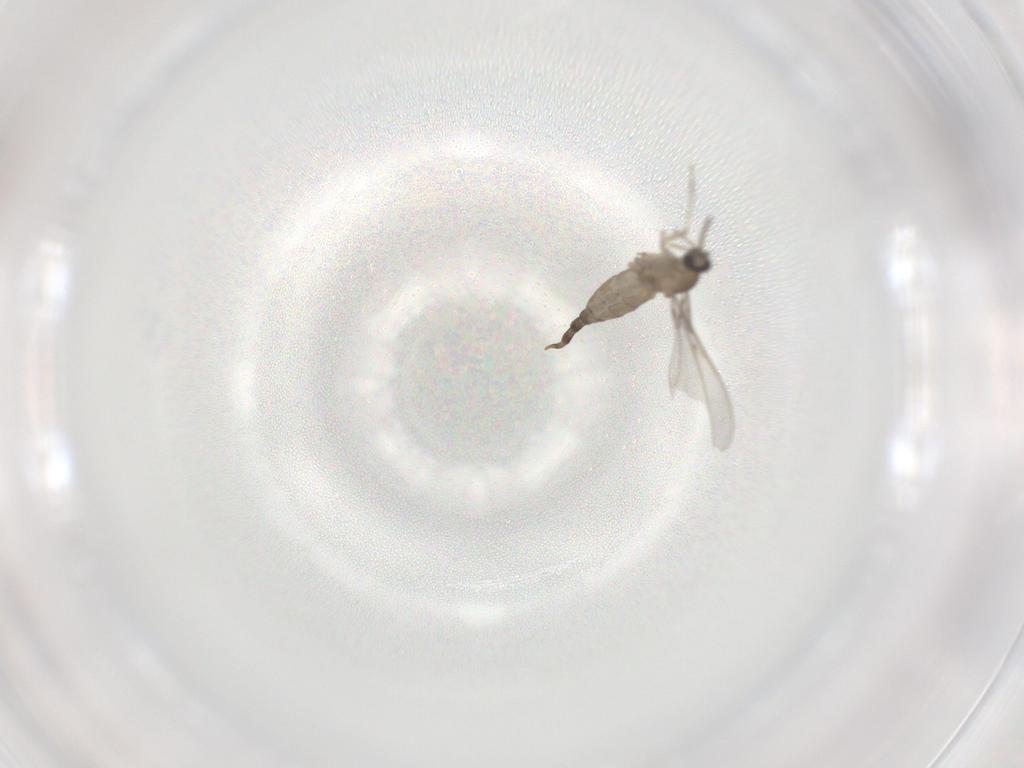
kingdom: Animalia
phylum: Arthropoda
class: Insecta
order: Diptera
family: Cecidomyiidae
